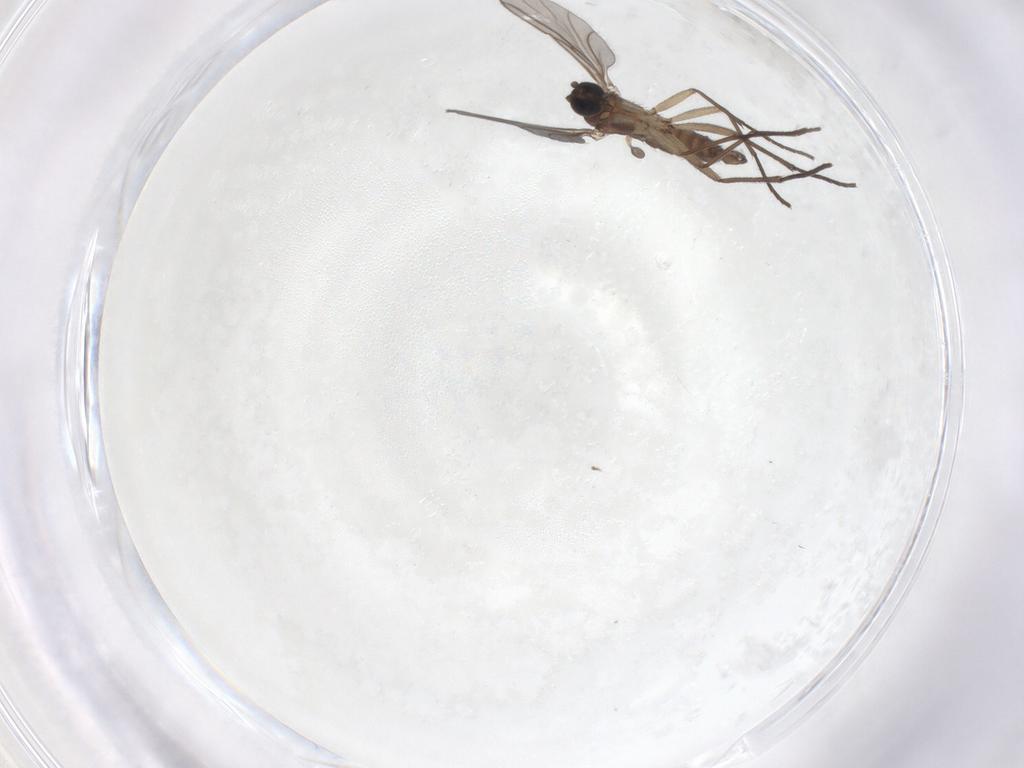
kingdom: Animalia
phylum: Arthropoda
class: Insecta
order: Diptera
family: Sciaridae
